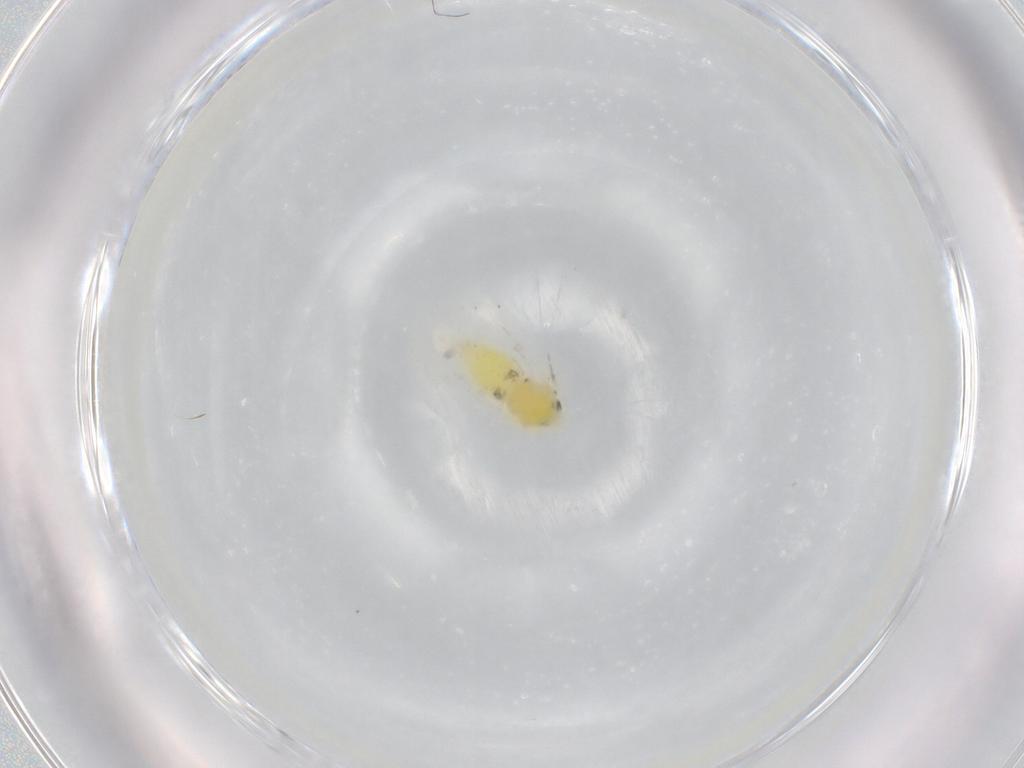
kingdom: Animalia
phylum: Arthropoda
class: Insecta
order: Hemiptera
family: Aleyrodidae
